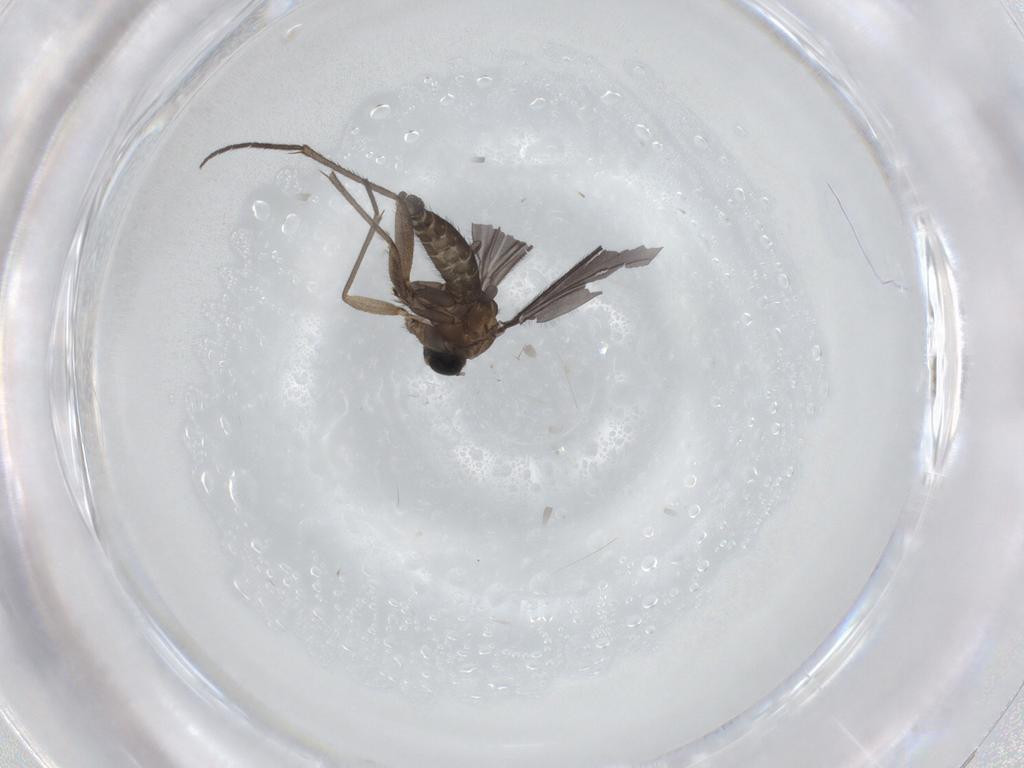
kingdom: Animalia
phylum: Arthropoda
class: Insecta
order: Diptera
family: Sciaridae
